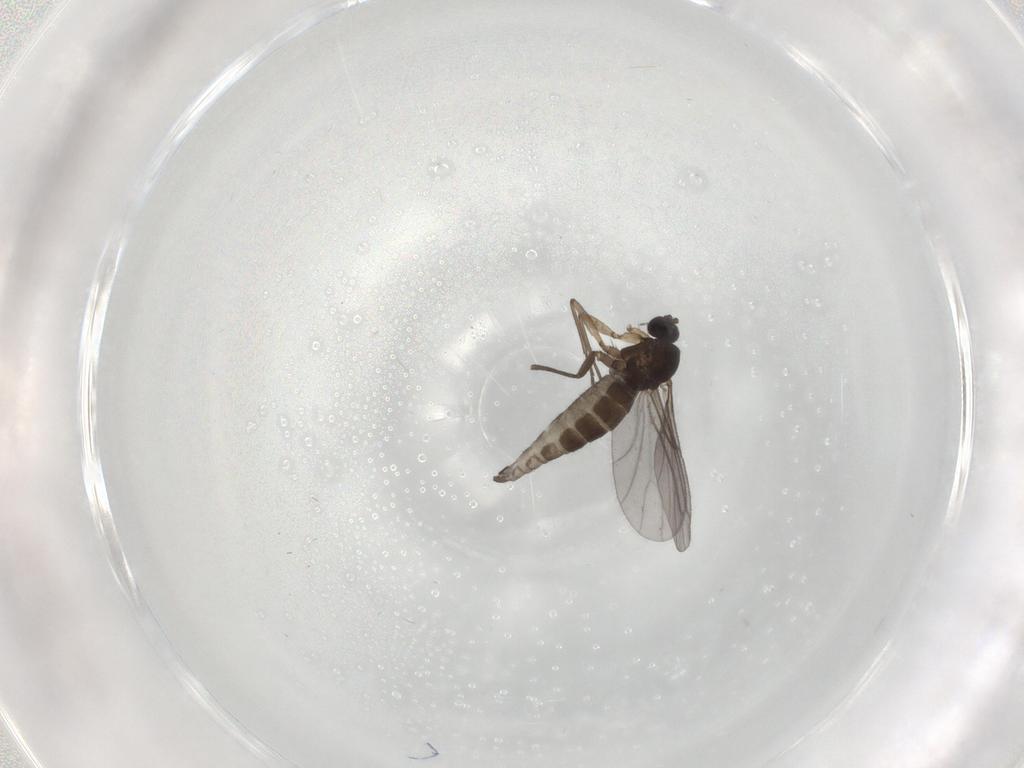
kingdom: Animalia
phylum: Arthropoda
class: Insecta
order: Diptera
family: Sciaridae
